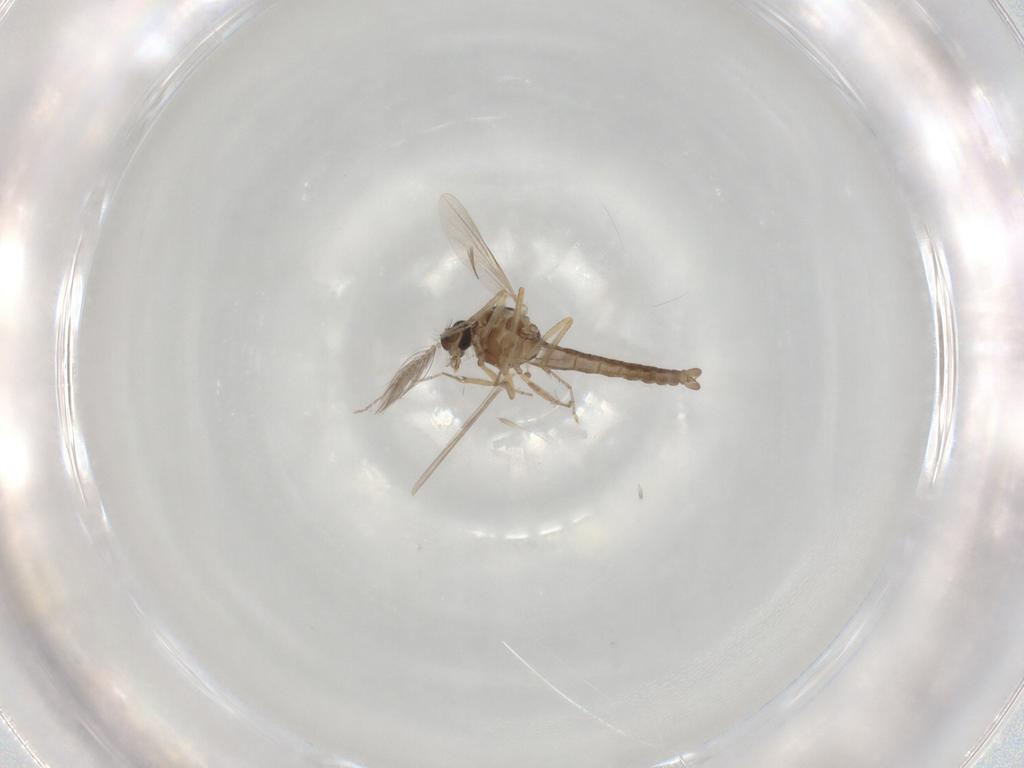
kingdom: Animalia
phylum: Arthropoda
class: Insecta
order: Diptera
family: Ceratopogonidae
